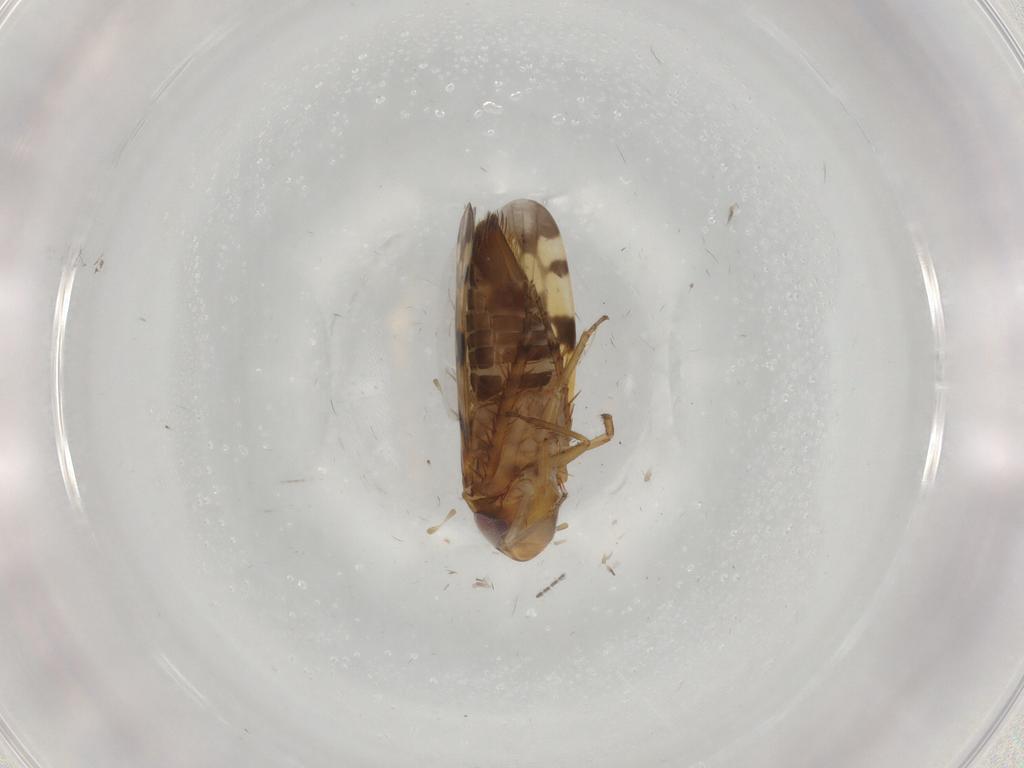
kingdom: Animalia
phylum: Arthropoda
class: Insecta
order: Hemiptera
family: Cicadellidae
